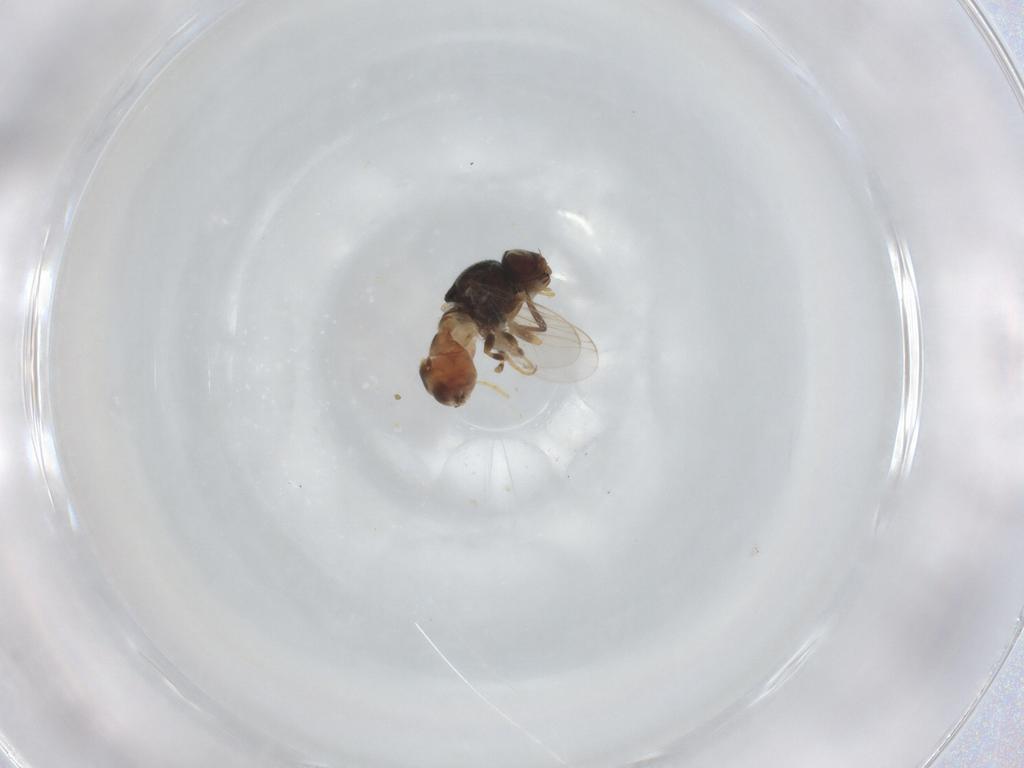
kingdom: Animalia
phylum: Arthropoda
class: Insecta
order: Diptera
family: Chloropidae
